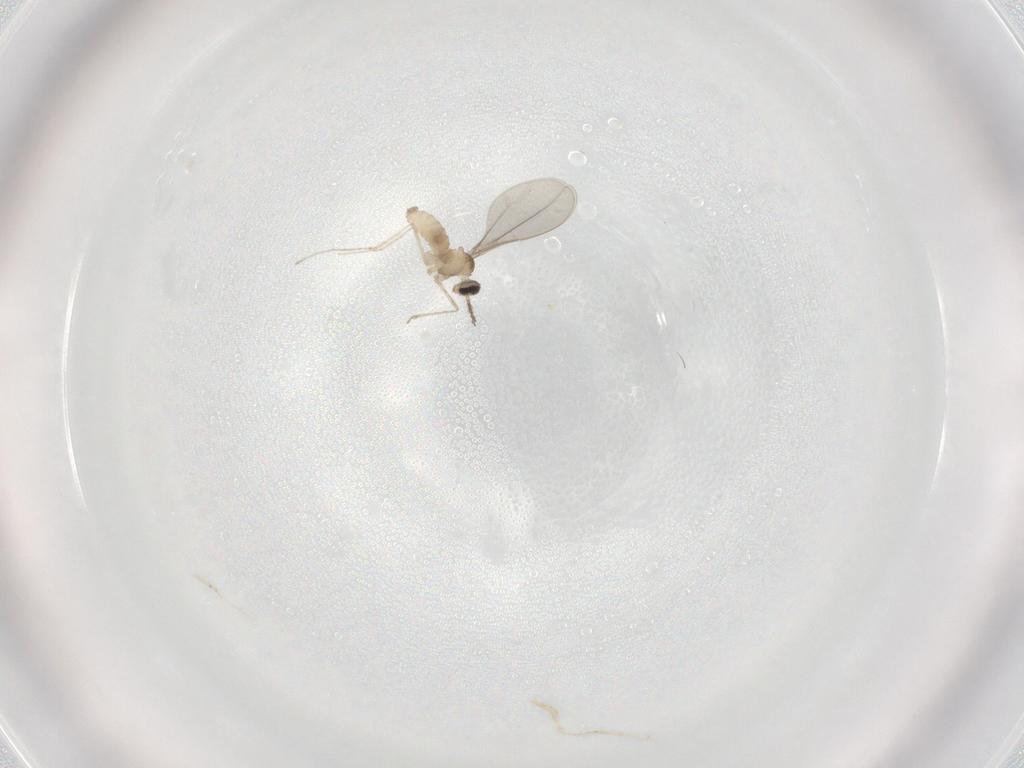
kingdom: Animalia
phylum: Arthropoda
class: Insecta
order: Diptera
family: Cecidomyiidae
